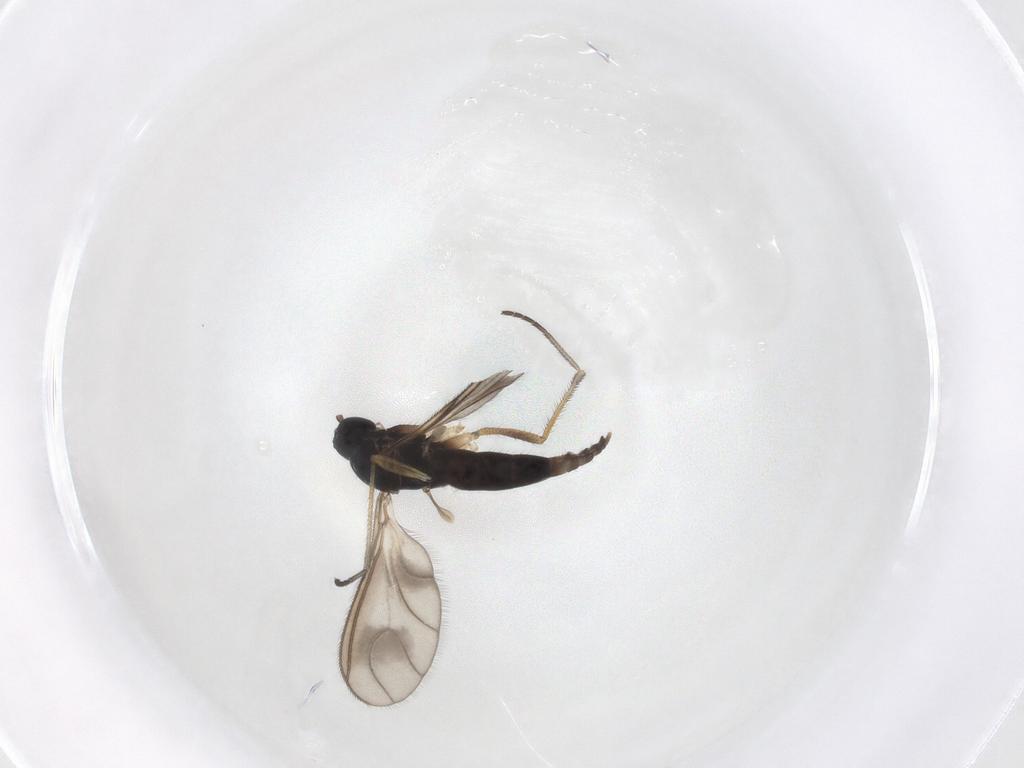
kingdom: Animalia
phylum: Arthropoda
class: Insecta
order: Diptera
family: Sciaridae
